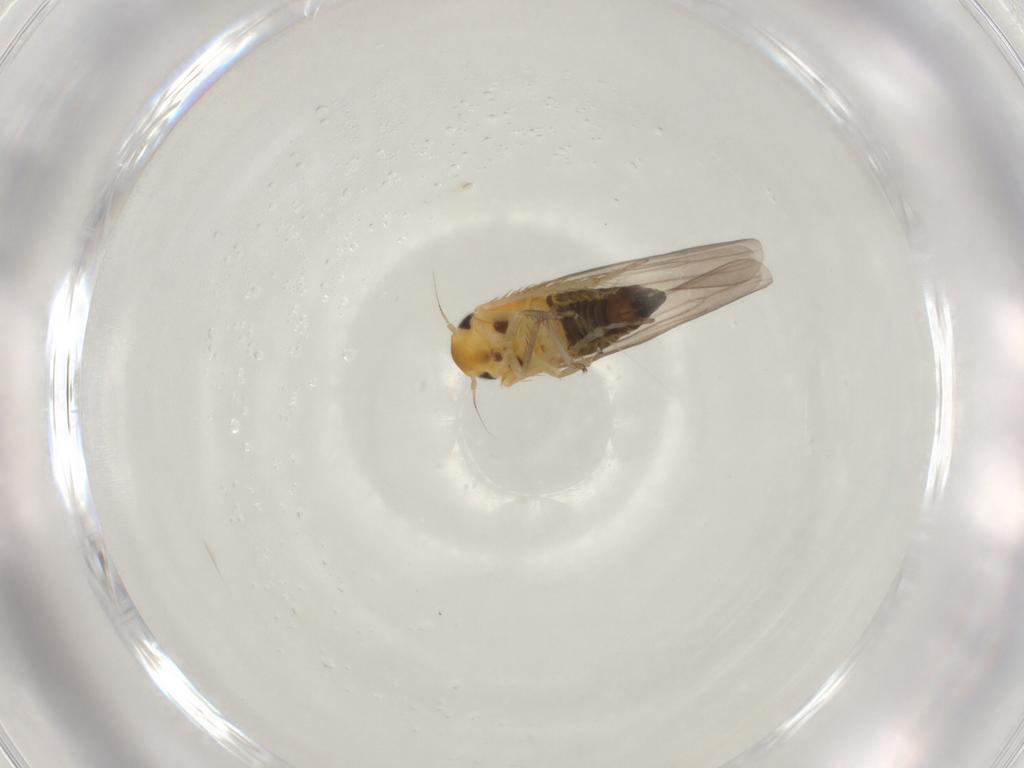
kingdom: Animalia
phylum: Arthropoda
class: Insecta
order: Hemiptera
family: Cicadellidae
